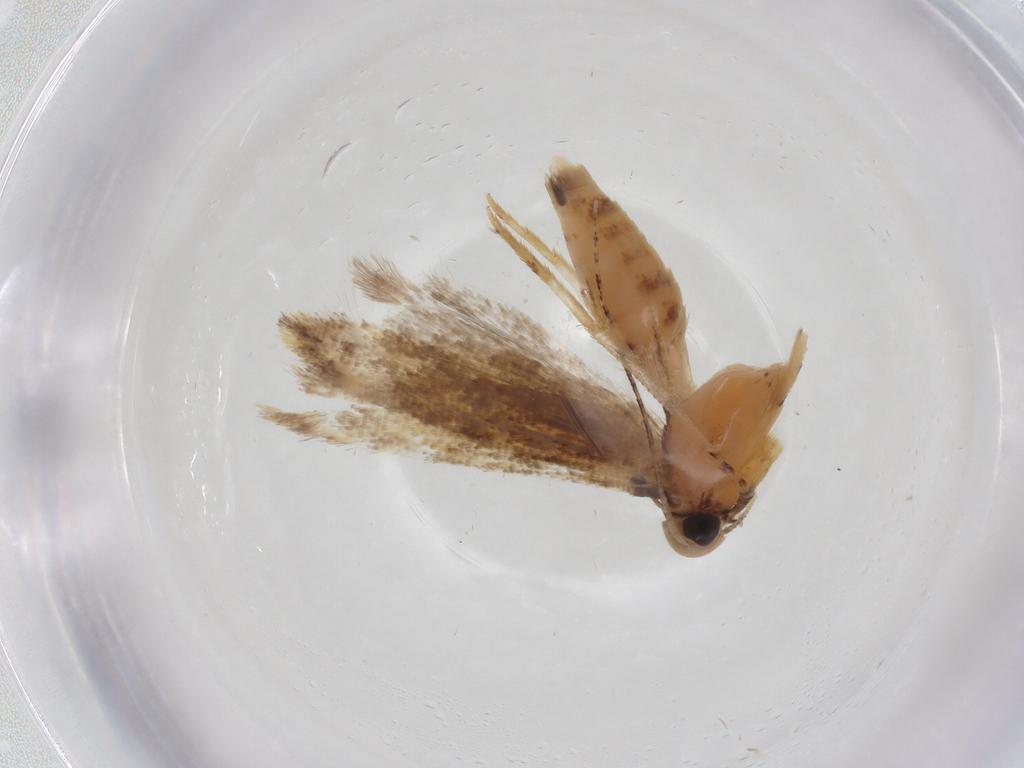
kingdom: Animalia
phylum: Arthropoda
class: Insecta
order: Lepidoptera
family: Gelechiidae
